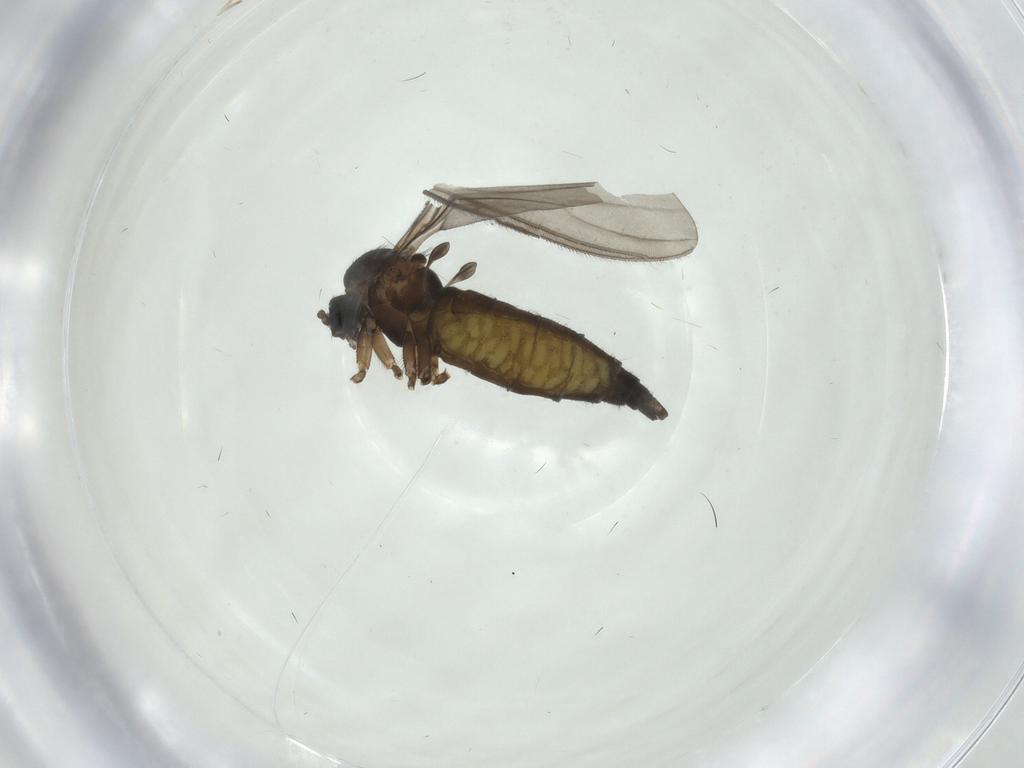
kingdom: Animalia
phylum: Arthropoda
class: Insecta
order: Diptera
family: Sciaridae
